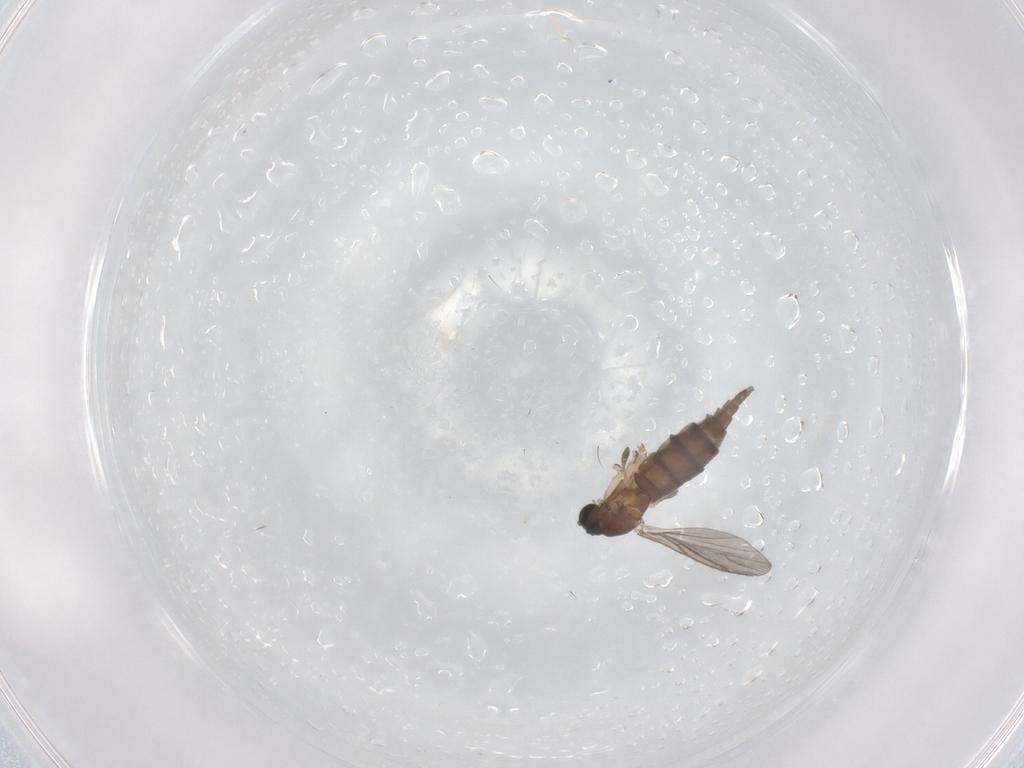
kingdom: Animalia
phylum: Arthropoda
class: Insecta
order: Diptera
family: Sciaridae
